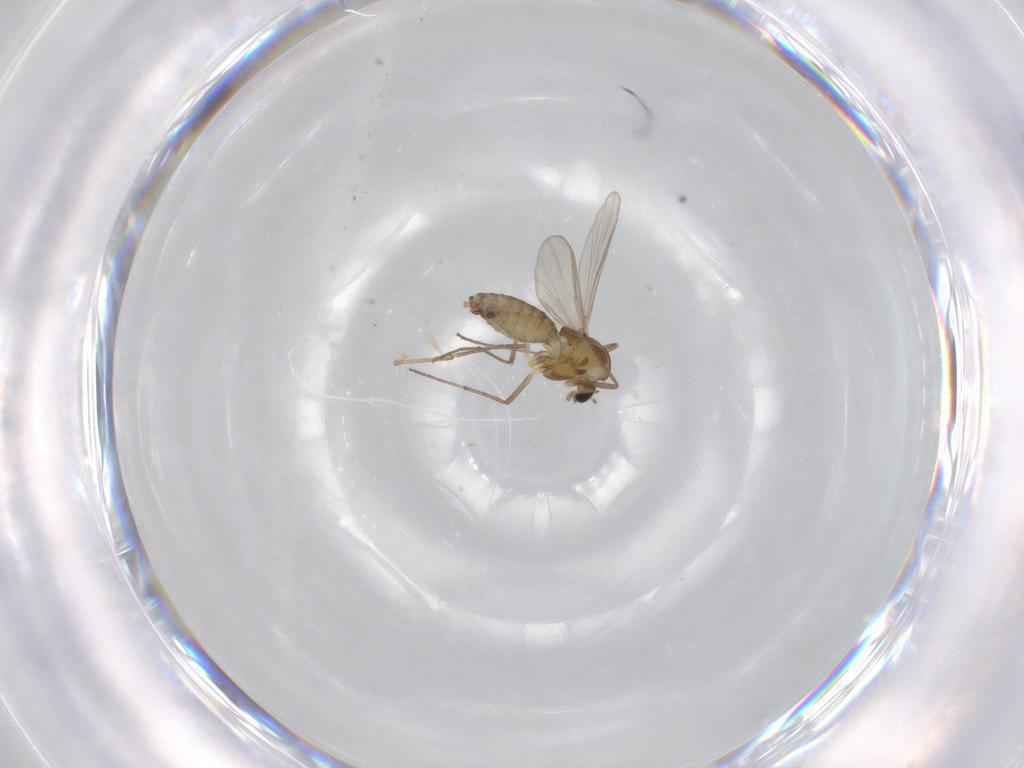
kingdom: Animalia
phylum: Arthropoda
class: Insecta
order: Diptera
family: Chironomidae
